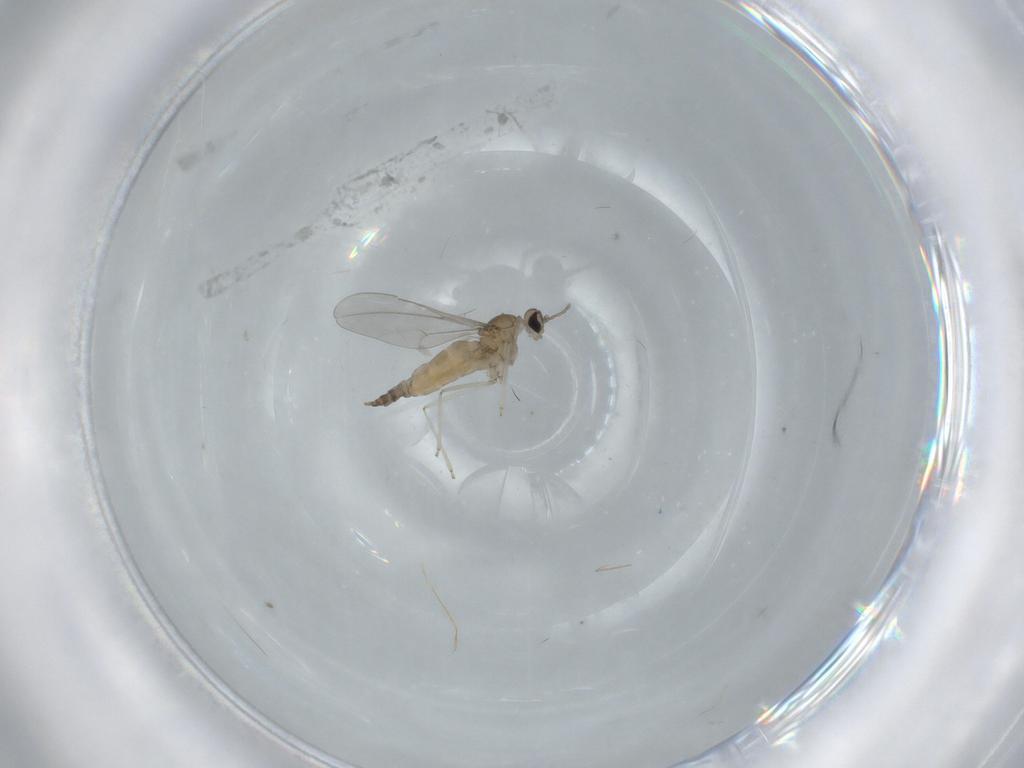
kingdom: Animalia
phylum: Arthropoda
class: Insecta
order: Diptera
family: Cecidomyiidae
